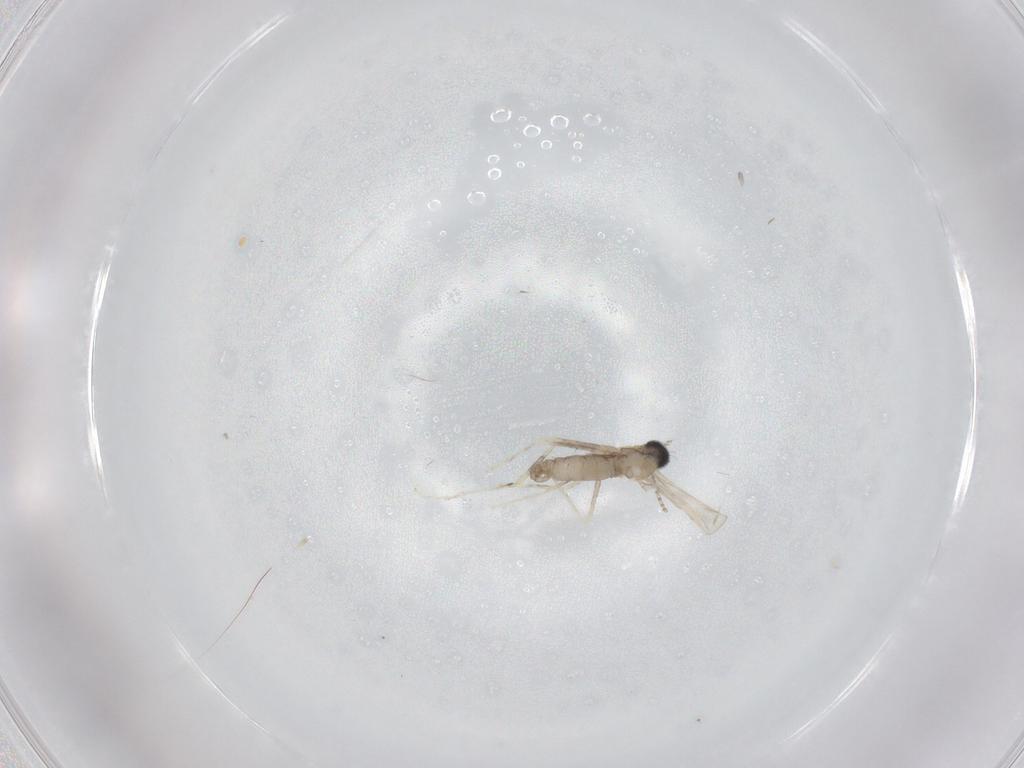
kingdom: Animalia
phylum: Arthropoda
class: Insecta
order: Diptera
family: Cecidomyiidae
